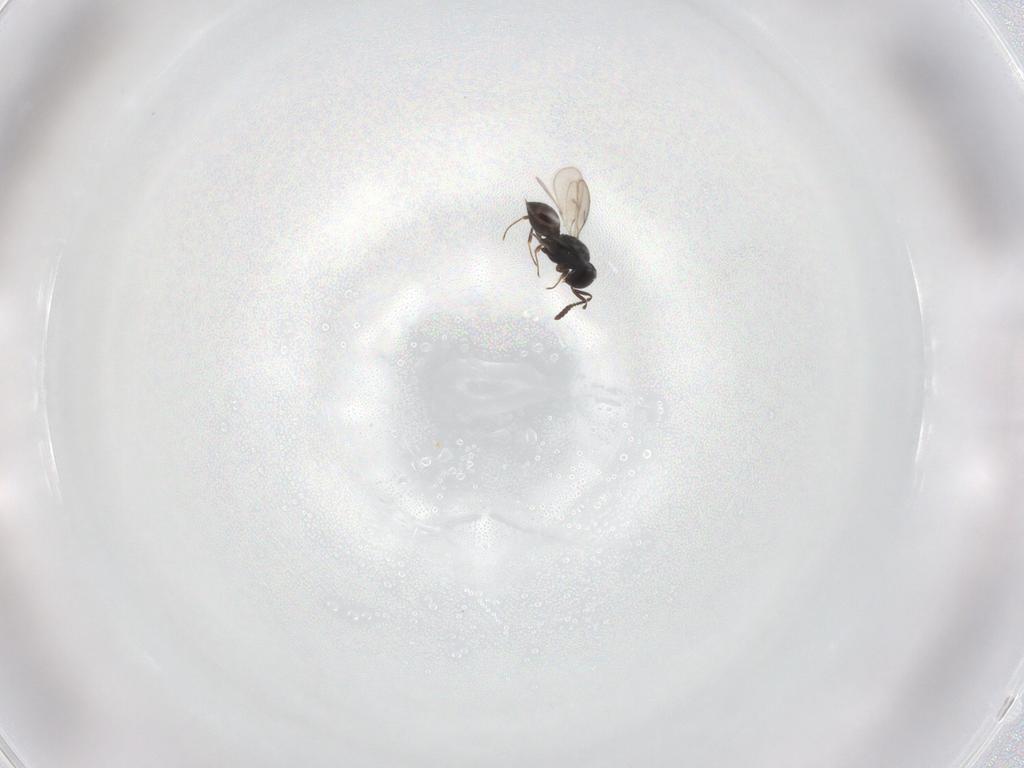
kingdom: Animalia
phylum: Arthropoda
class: Insecta
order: Hymenoptera
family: Scelionidae
